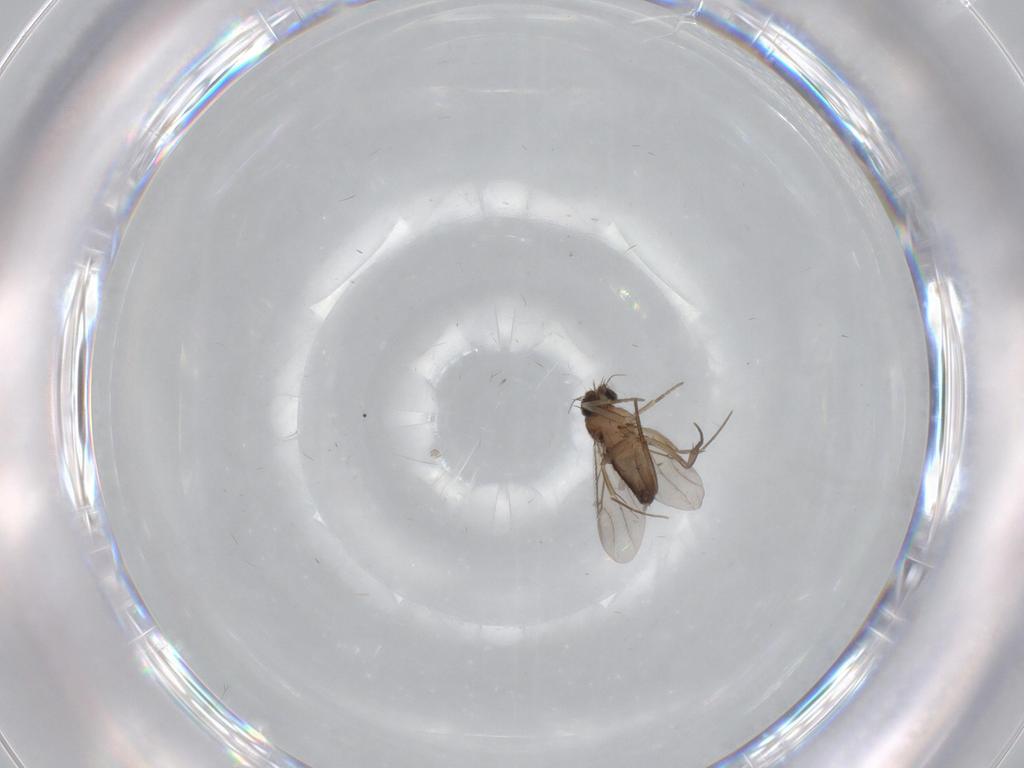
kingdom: Animalia
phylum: Arthropoda
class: Insecta
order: Diptera
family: Phoridae
